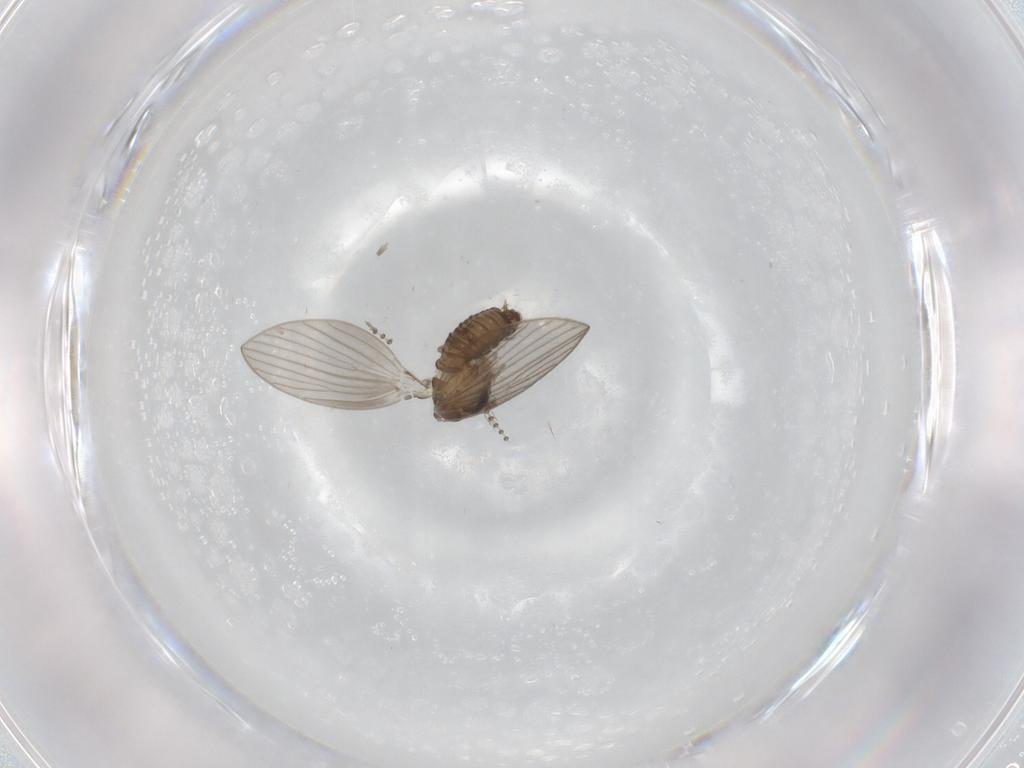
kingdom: Animalia
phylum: Arthropoda
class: Insecta
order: Diptera
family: Psychodidae
